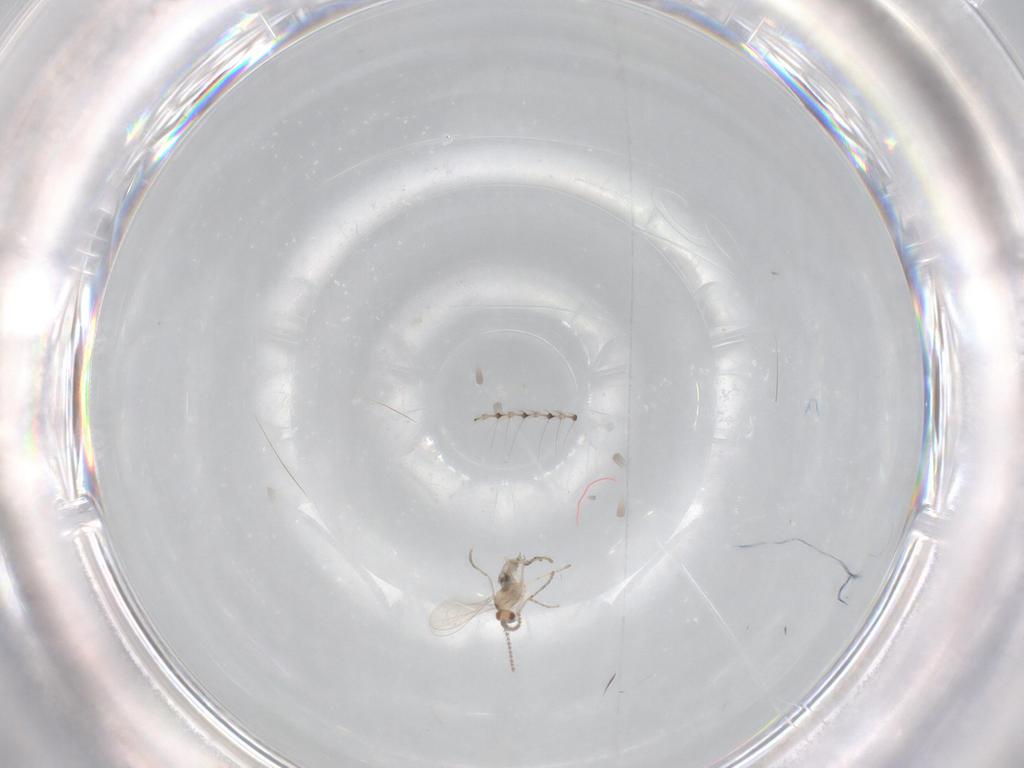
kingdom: Animalia
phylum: Arthropoda
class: Insecta
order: Diptera
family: Cecidomyiidae
